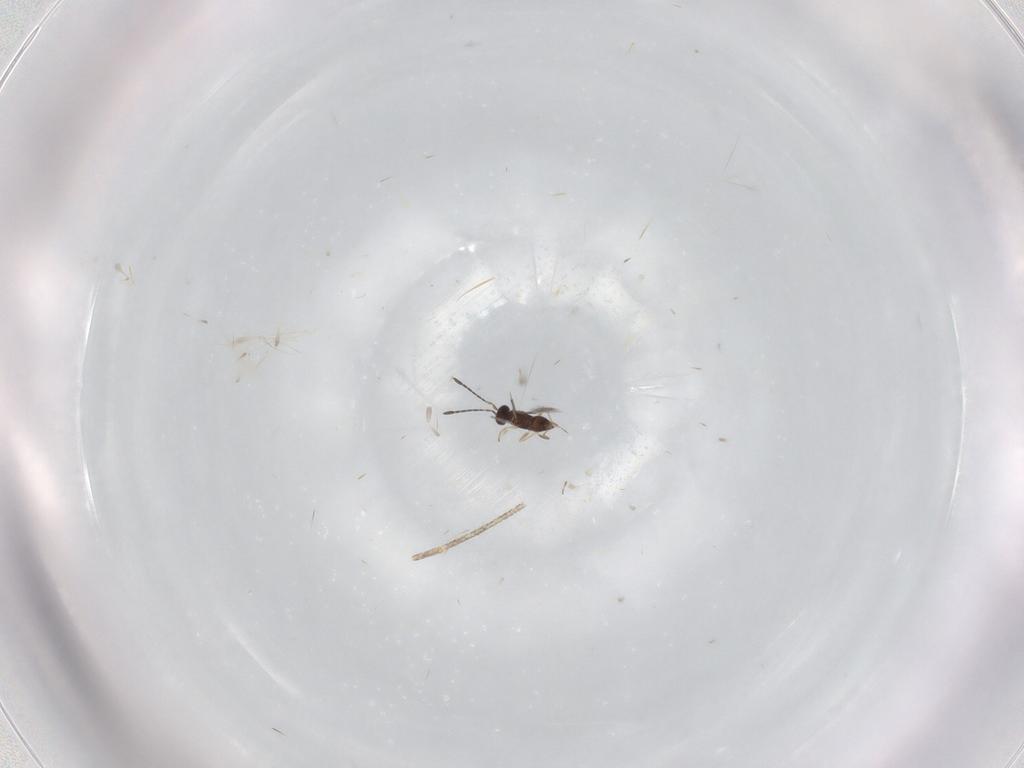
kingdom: Animalia
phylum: Arthropoda
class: Insecta
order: Hymenoptera
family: Mymaridae
